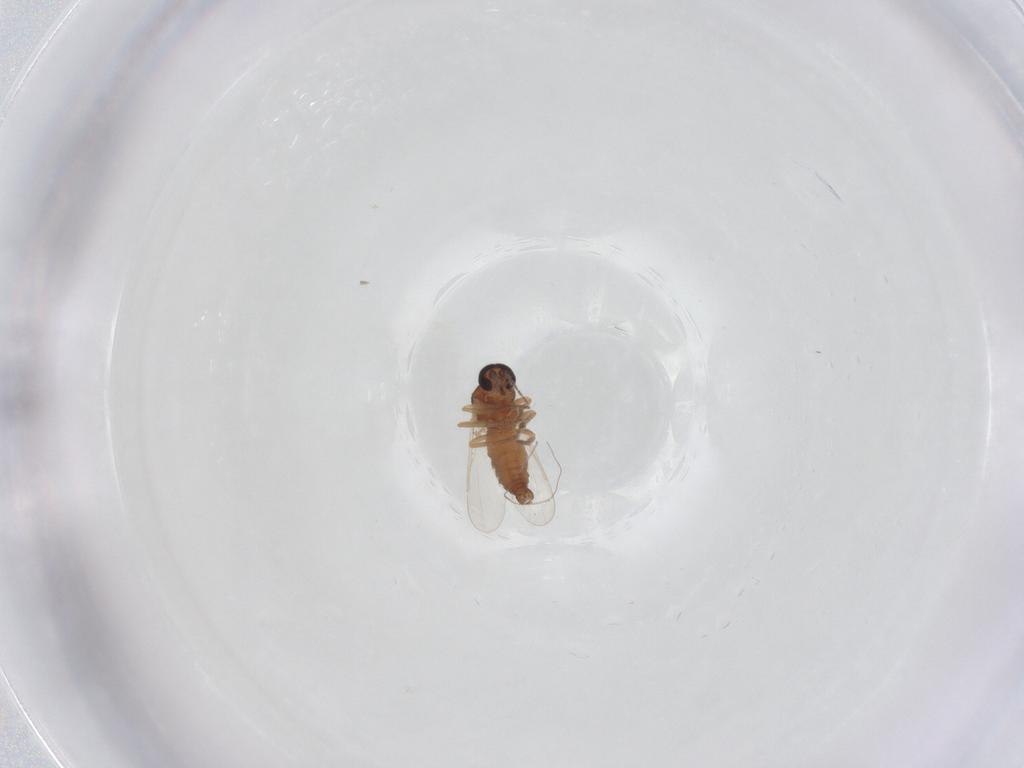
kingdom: Animalia
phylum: Arthropoda
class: Insecta
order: Diptera
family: Ceratopogonidae
